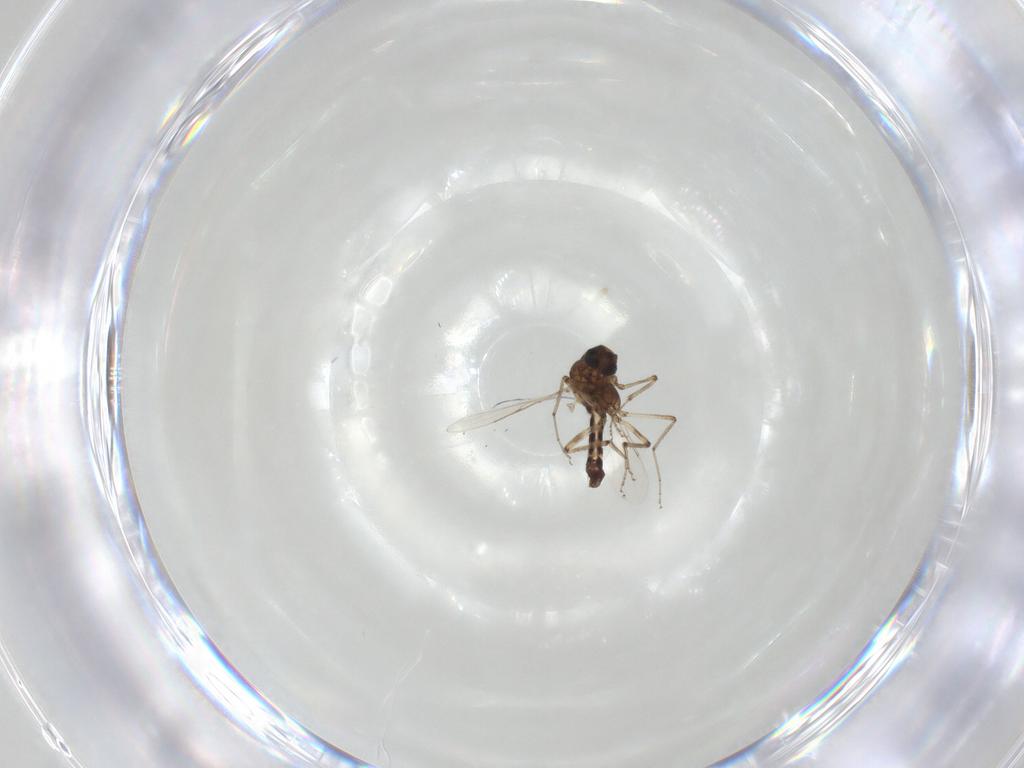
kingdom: Animalia
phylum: Arthropoda
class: Insecta
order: Diptera
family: Ceratopogonidae
